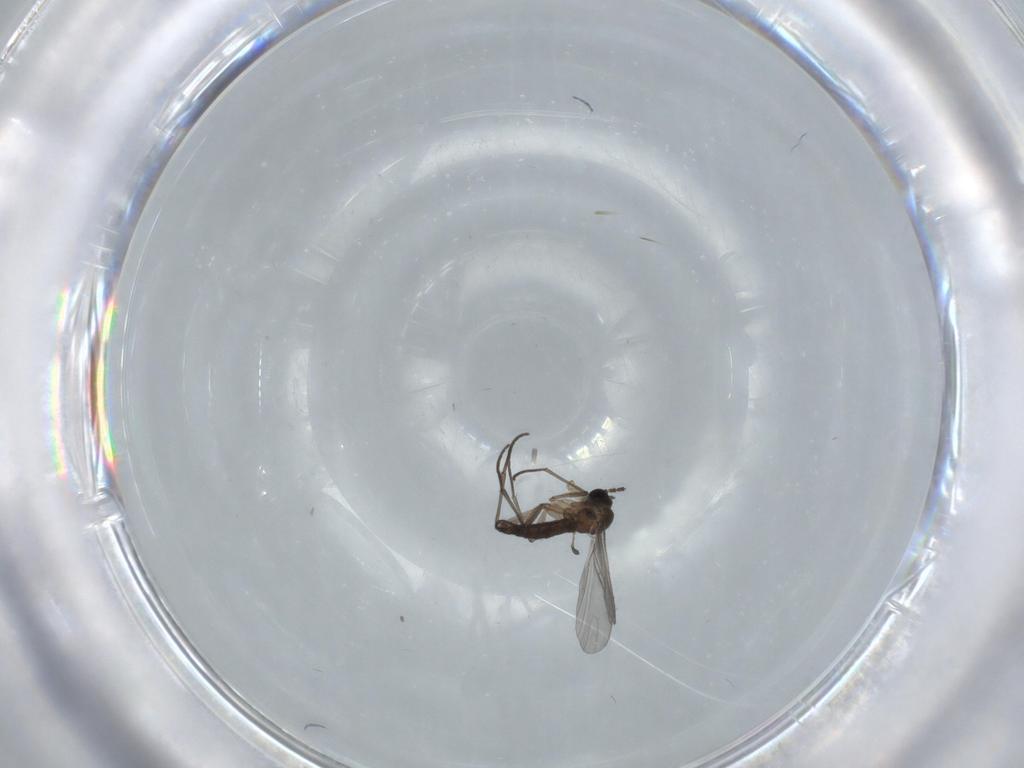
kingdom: Animalia
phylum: Arthropoda
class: Insecta
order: Diptera
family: Sciaridae
